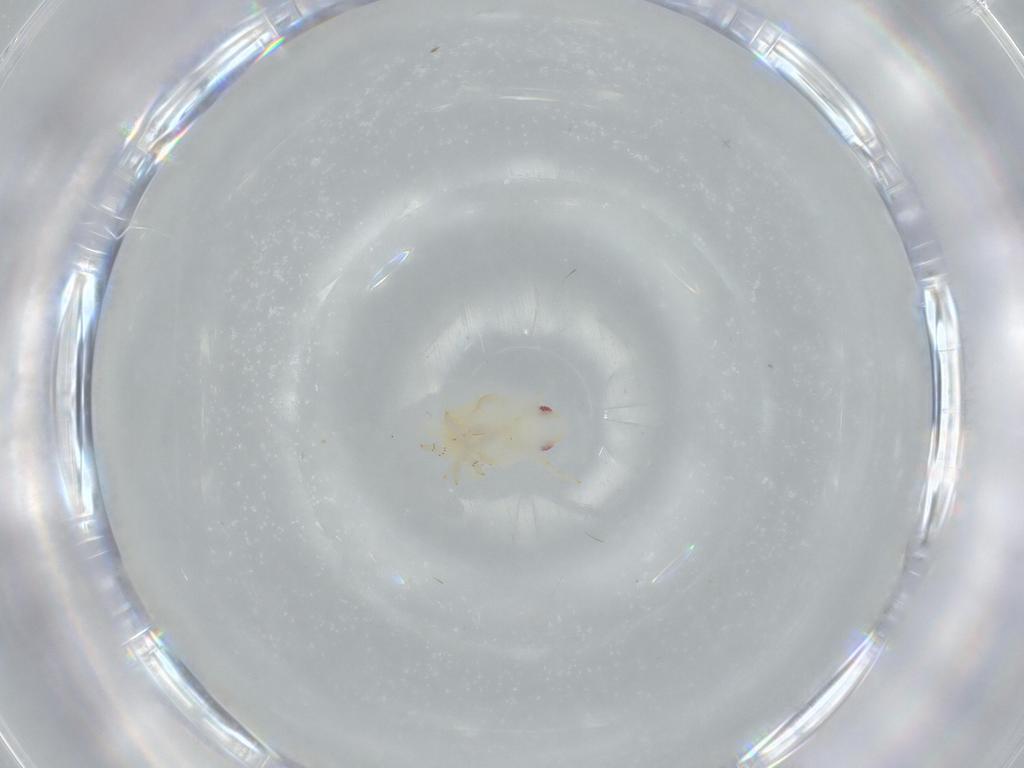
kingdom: Animalia
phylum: Arthropoda
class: Insecta
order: Hemiptera
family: Flatidae
